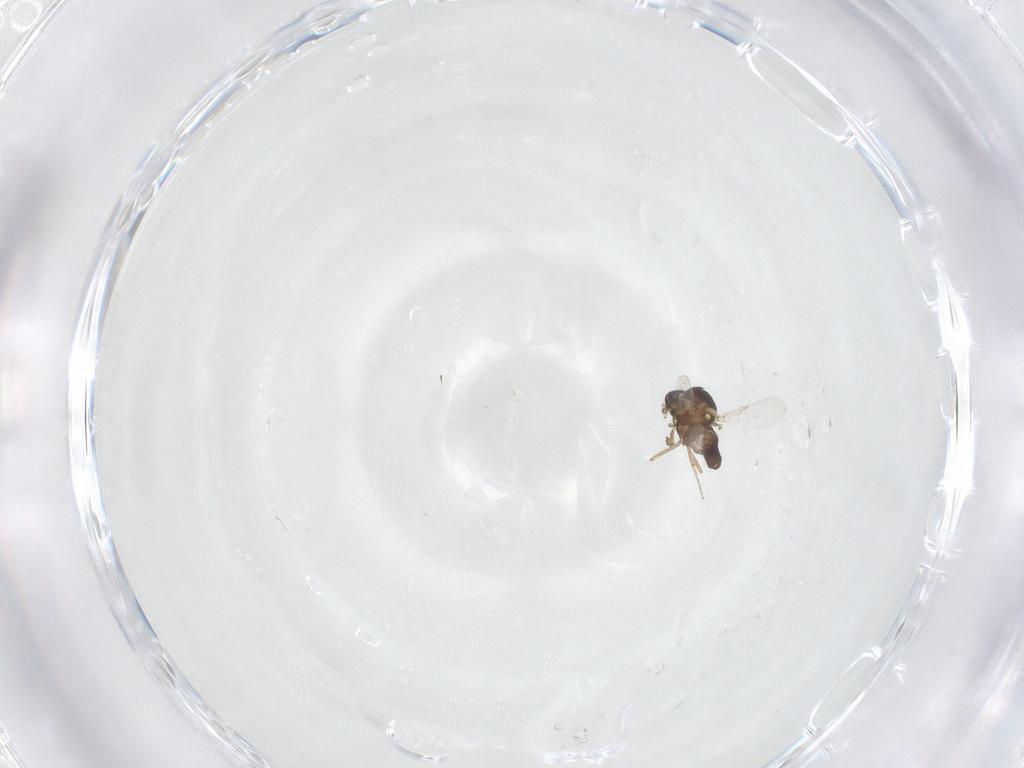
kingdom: Animalia
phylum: Arthropoda
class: Insecta
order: Diptera
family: Ceratopogonidae
